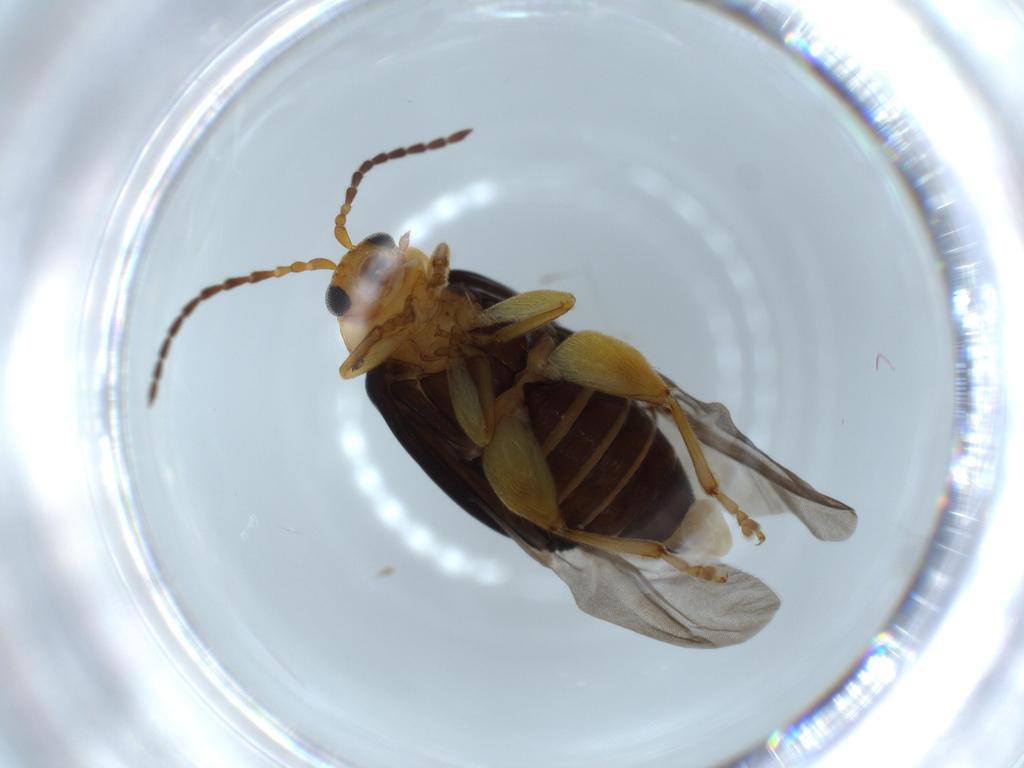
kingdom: Animalia
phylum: Arthropoda
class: Insecta
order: Coleoptera
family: Chrysomelidae
